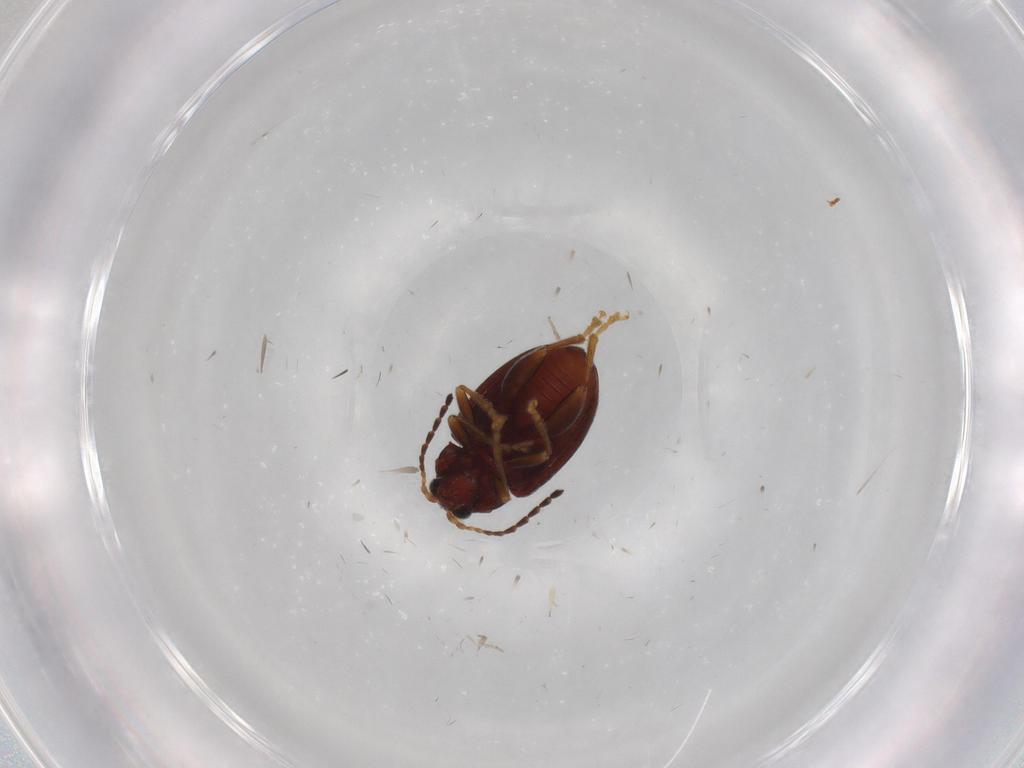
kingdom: Animalia
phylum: Arthropoda
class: Insecta
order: Coleoptera
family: Chrysomelidae
